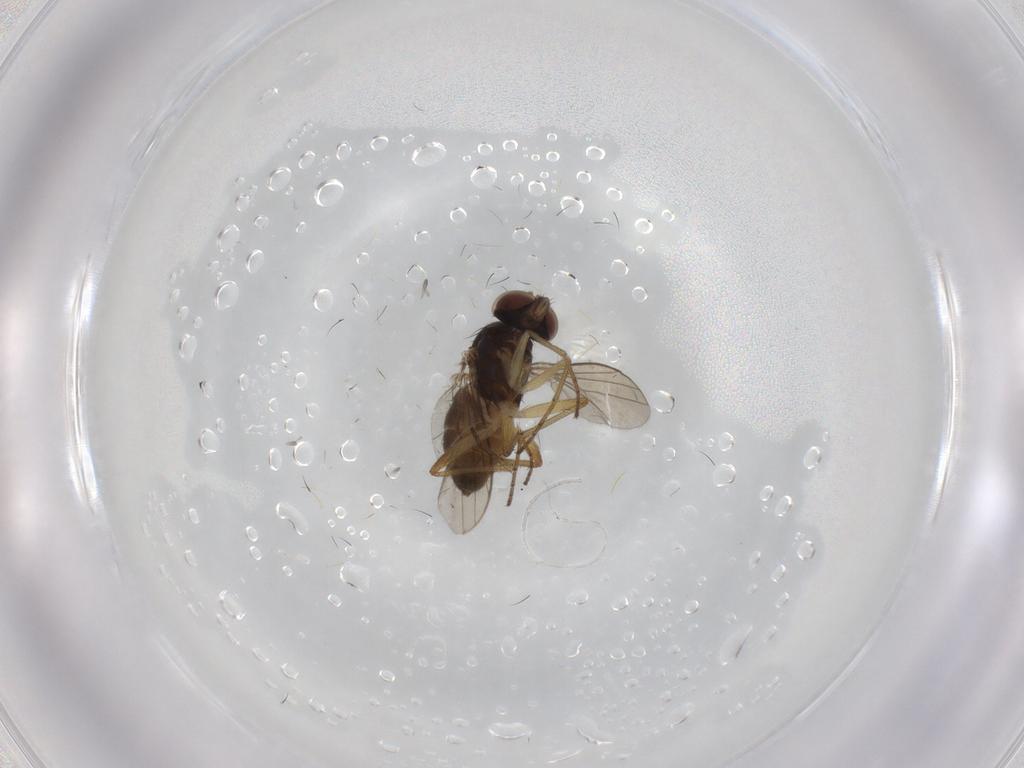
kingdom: Animalia
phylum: Arthropoda
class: Insecta
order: Diptera
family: Dolichopodidae
